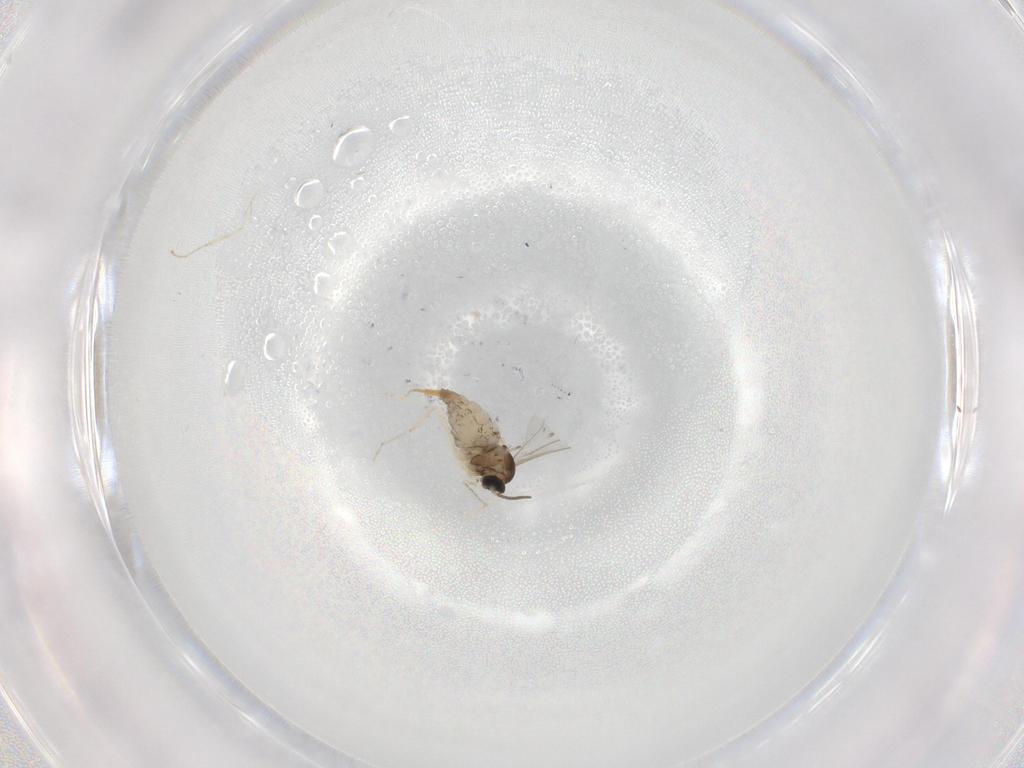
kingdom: Animalia
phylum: Arthropoda
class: Insecta
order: Diptera
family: Cecidomyiidae
